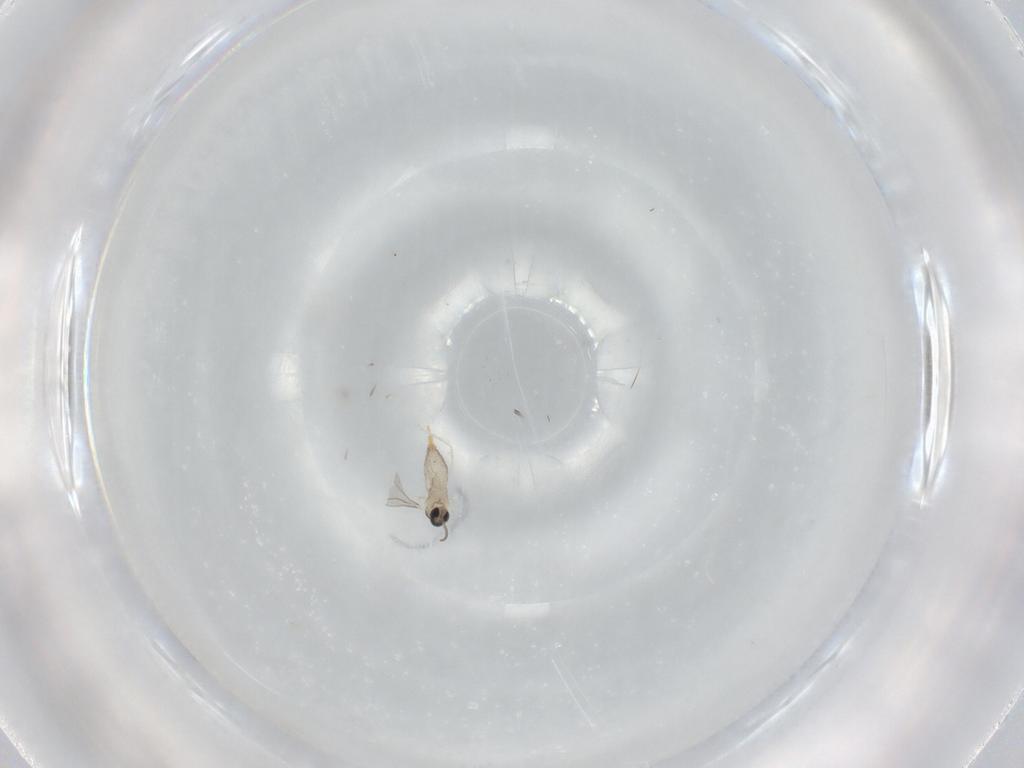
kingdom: Animalia
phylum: Arthropoda
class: Insecta
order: Diptera
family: Cecidomyiidae
